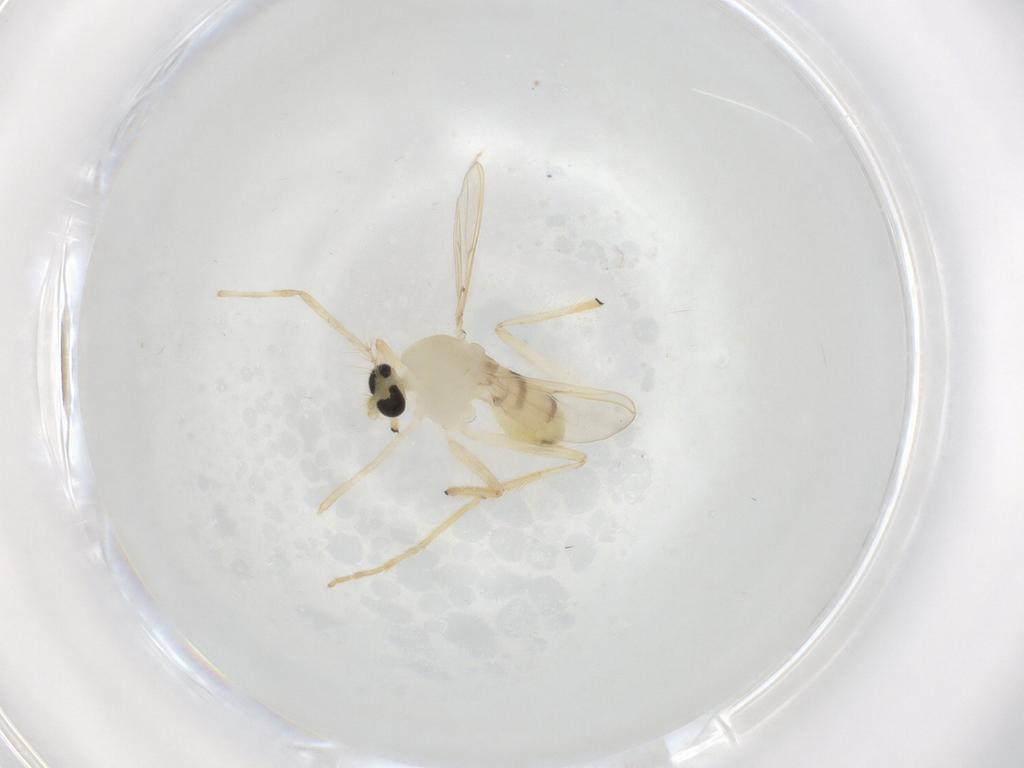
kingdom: Animalia
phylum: Arthropoda
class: Insecta
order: Diptera
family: Chironomidae
